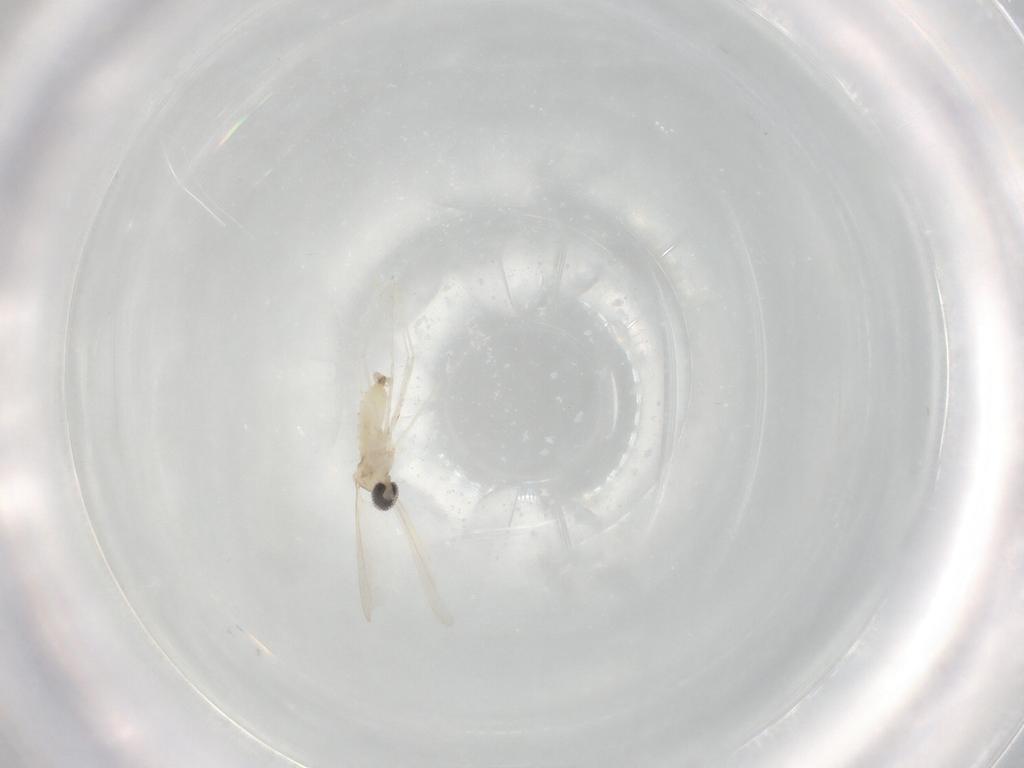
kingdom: Animalia
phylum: Arthropoda
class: Insecta
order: Diptera
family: Cecidomyiidae
